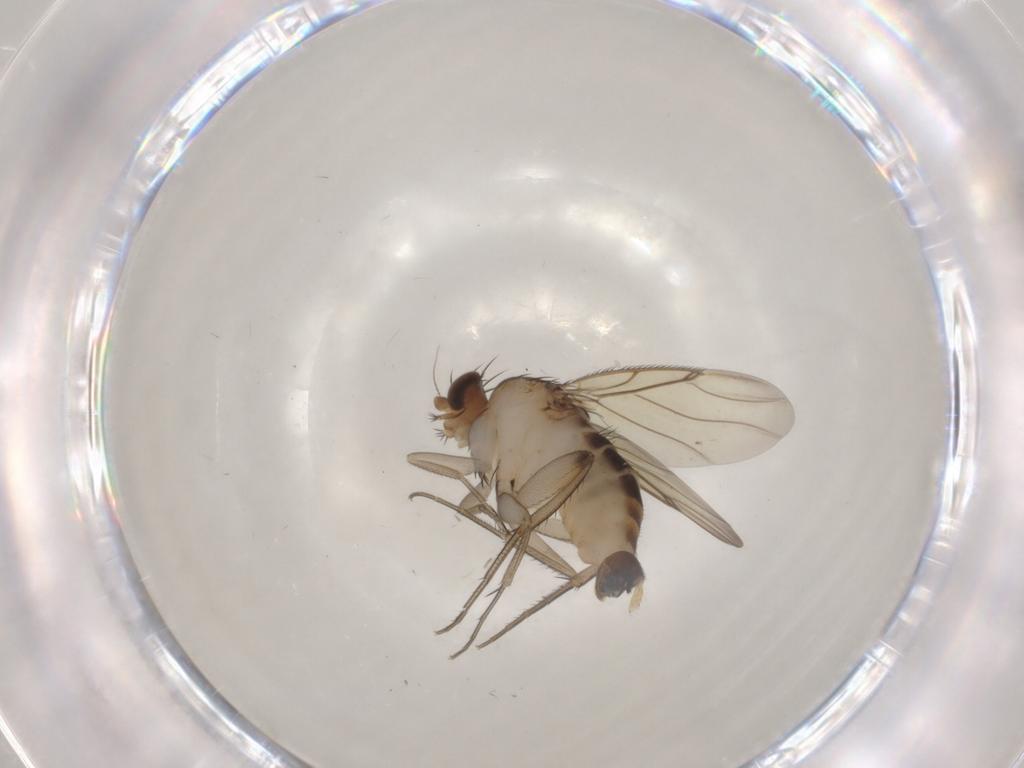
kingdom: Animalia
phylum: Arthropoda
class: Insecta
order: Diptera
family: Phoridae
